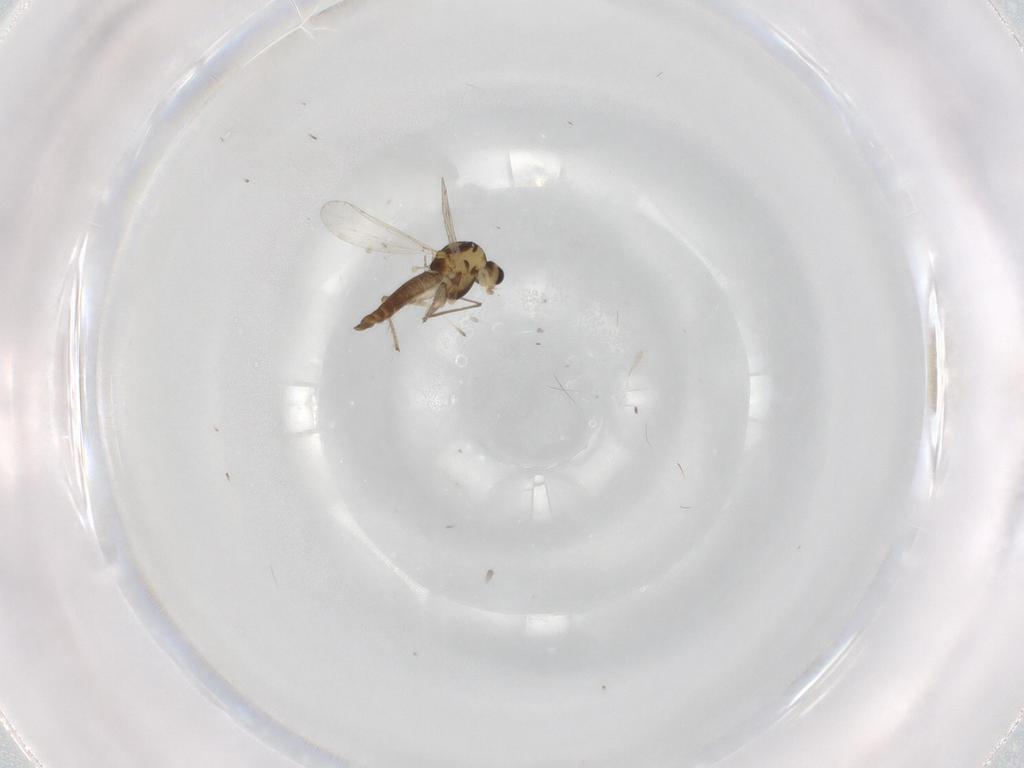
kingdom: Animalia
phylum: Arthropoda
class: Insecta
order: Diptera
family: Chironomidae
